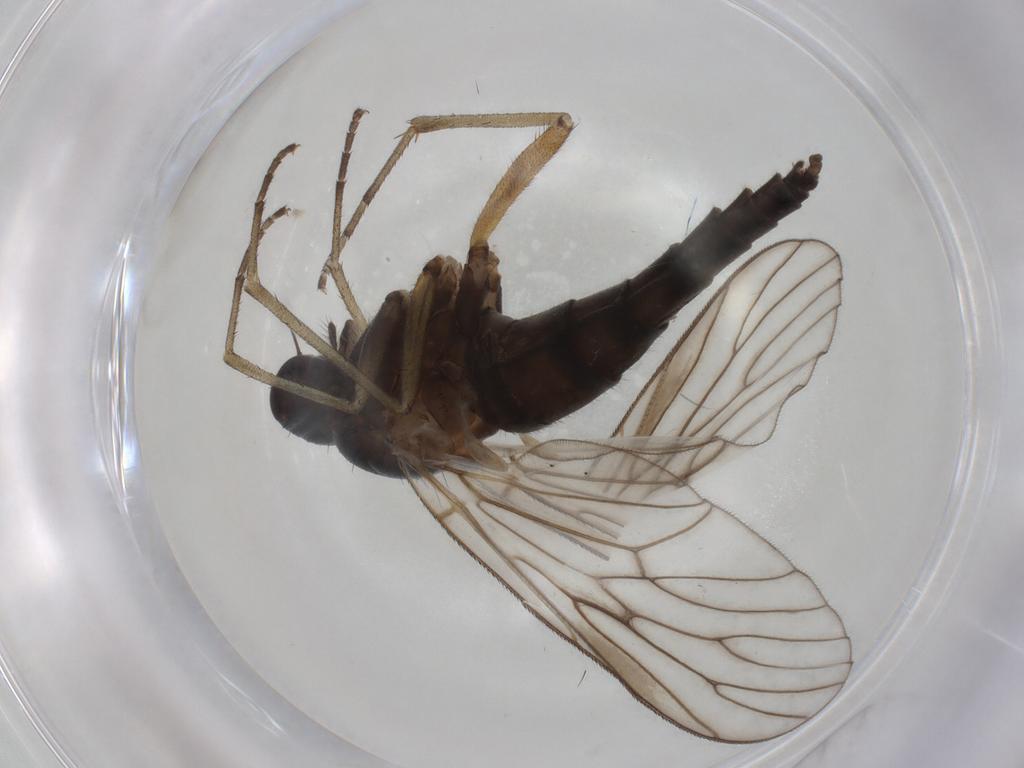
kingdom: Animalia
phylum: Arthropoda
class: Insecta
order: Diptera
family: Rhagionidae
